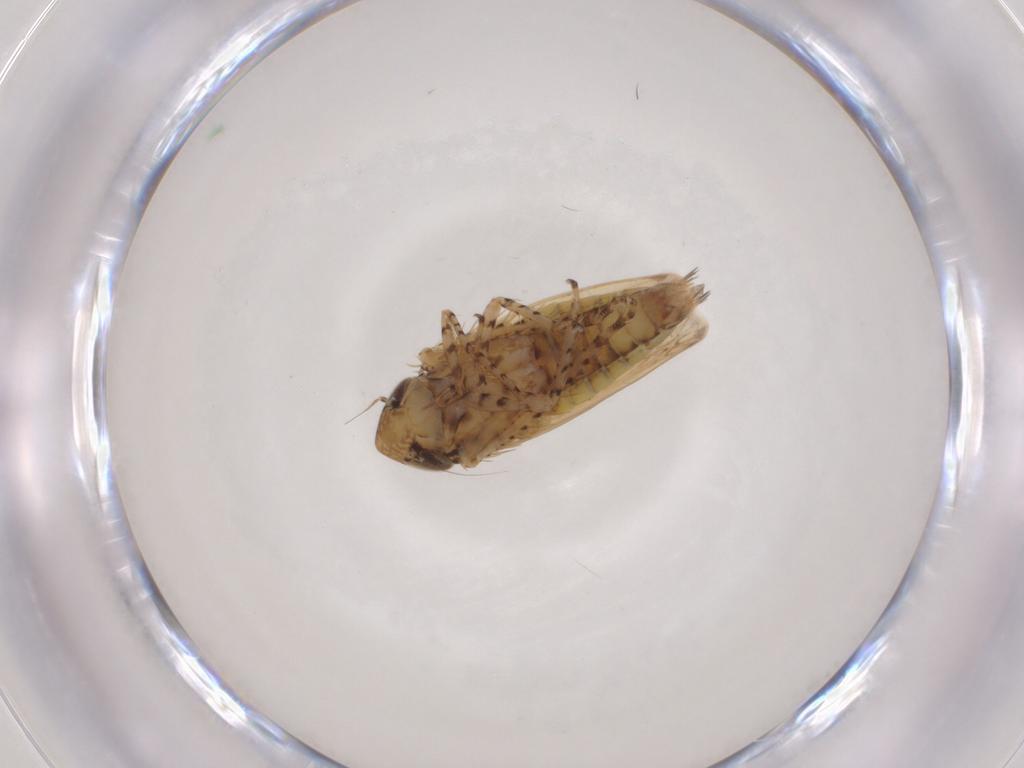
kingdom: Animalia
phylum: Arthropoda
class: Insecta
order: Hemiptera
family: Cicadellidae
